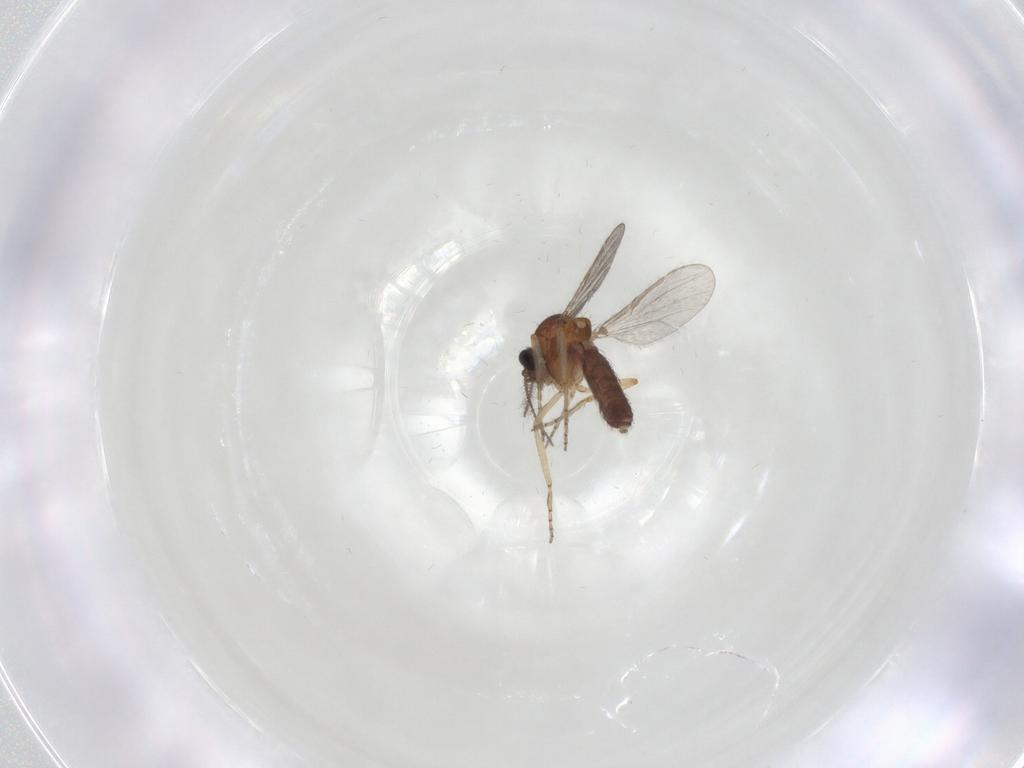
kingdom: Animalia
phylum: Arthropoda
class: Insecta
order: Diptera
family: Ceratopogonidae
